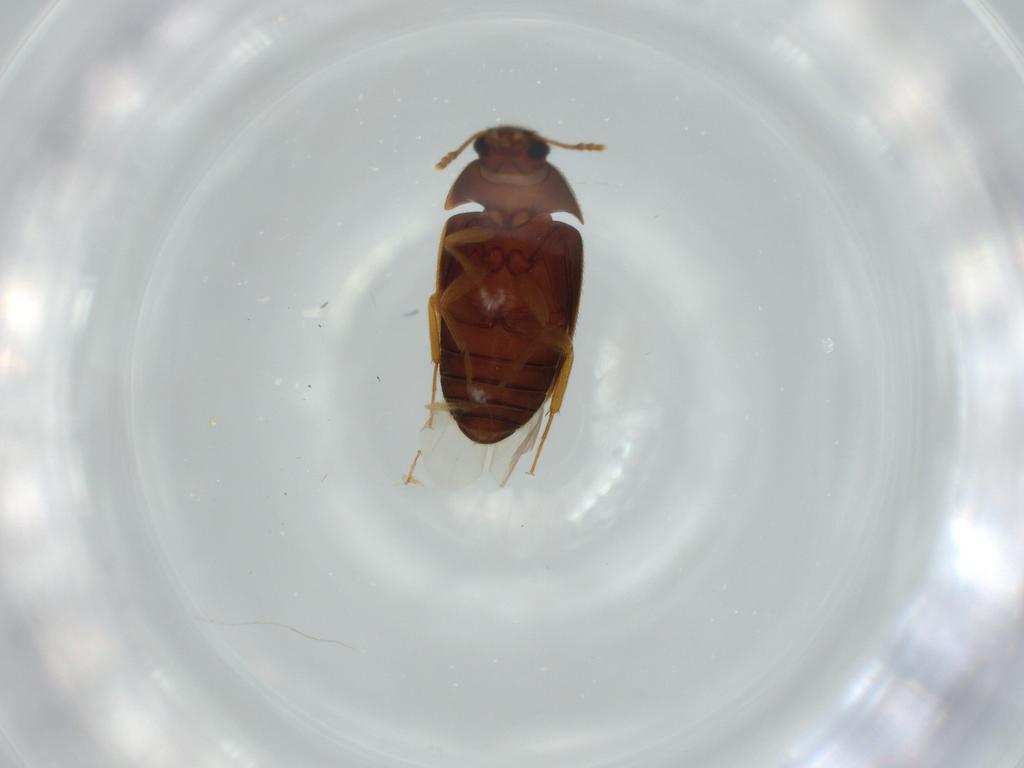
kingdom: Animalia
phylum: Arthropoda
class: Insecta
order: Coleoptera
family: Mycetophagidae
